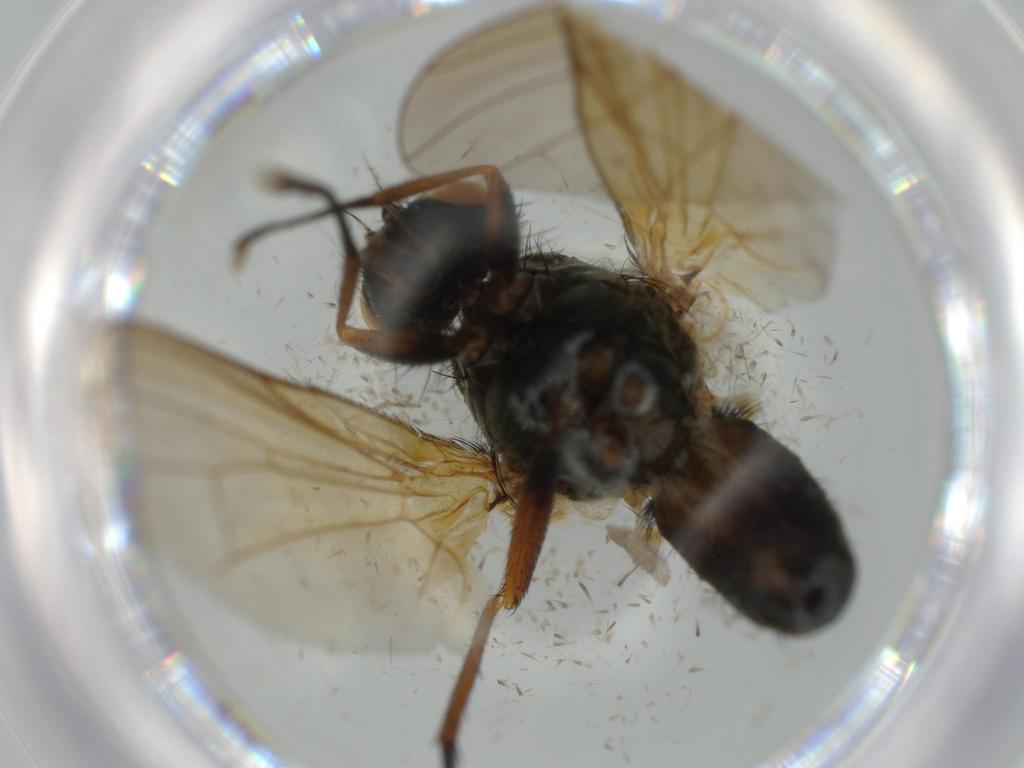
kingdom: Animalia
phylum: Arthropoda
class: Insecta
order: Diptera
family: Anthomyiidae
